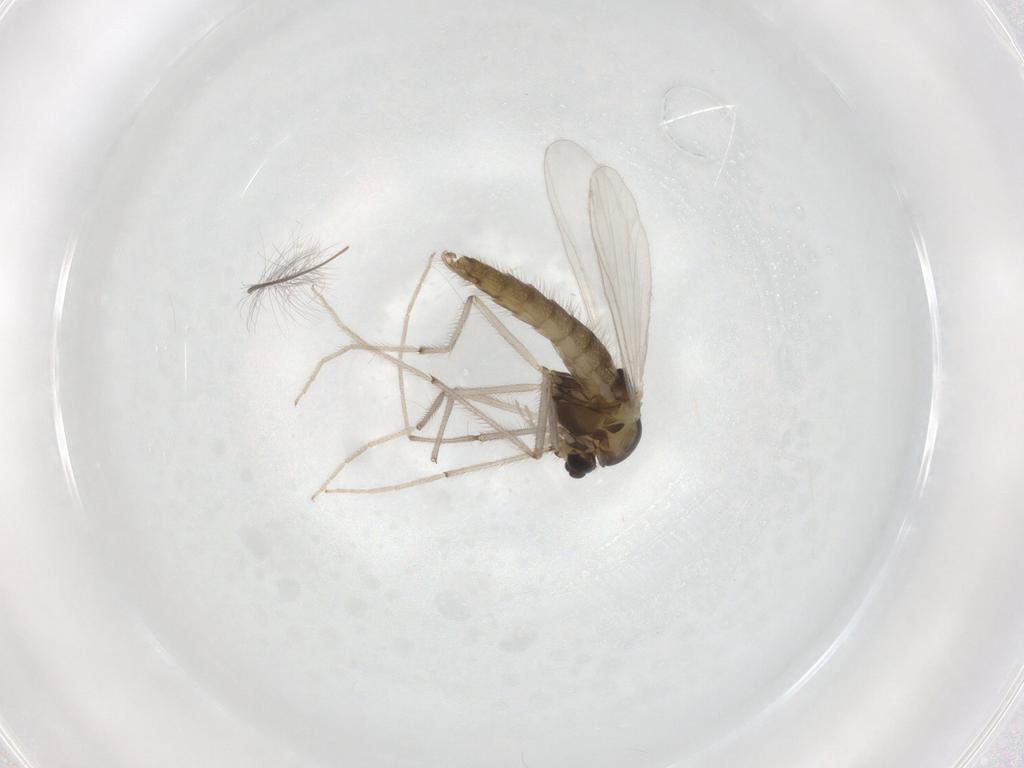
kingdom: Animalia
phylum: Arthropoda
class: Insecta
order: Diptera
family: Chironomidae
